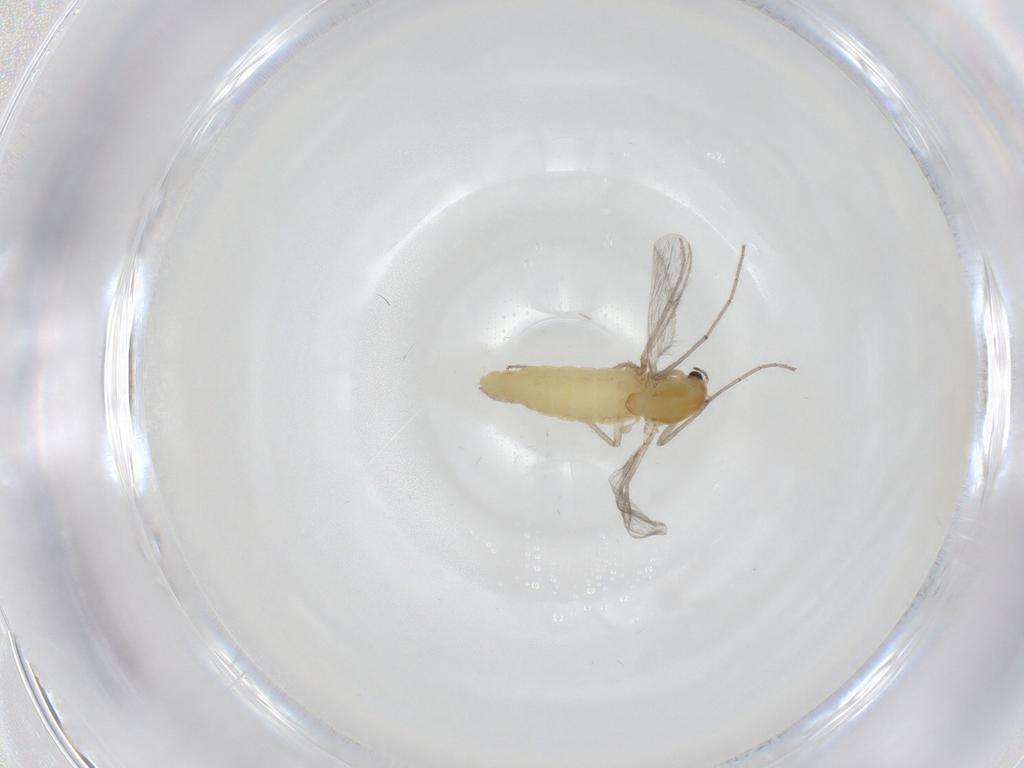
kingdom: Animalia
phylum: Arthropoda
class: Insecta
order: Diptera
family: Chironomidae
